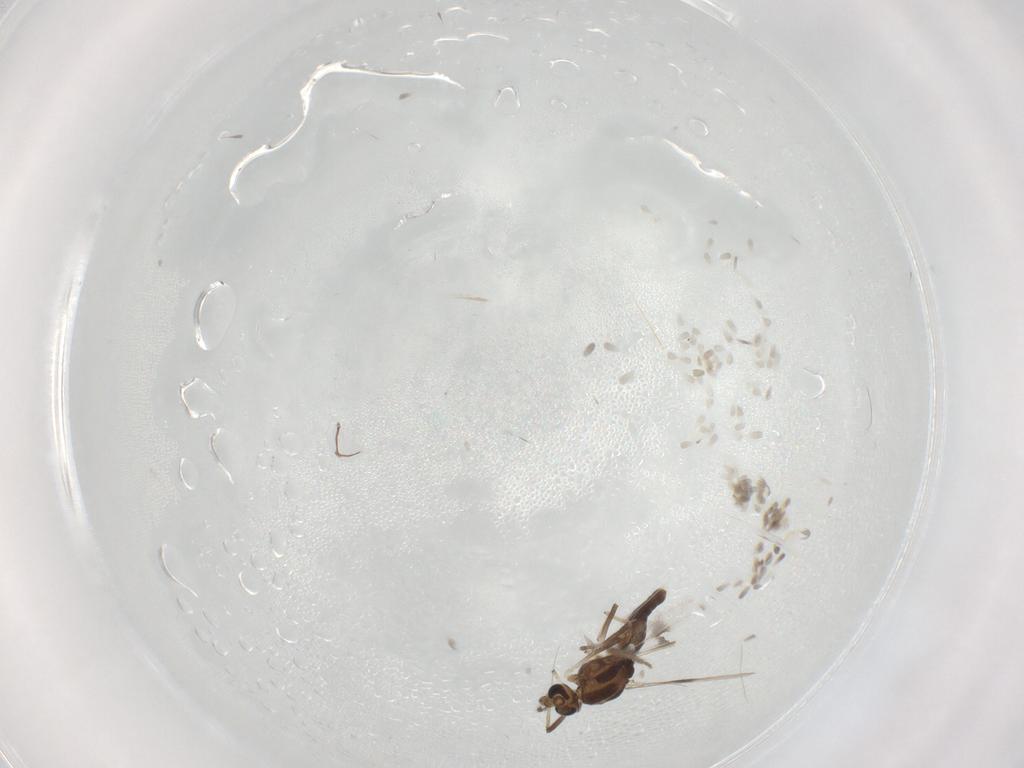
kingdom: Animalia
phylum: Arthropoda
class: Insecta
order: Diptera
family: Chironomidae
